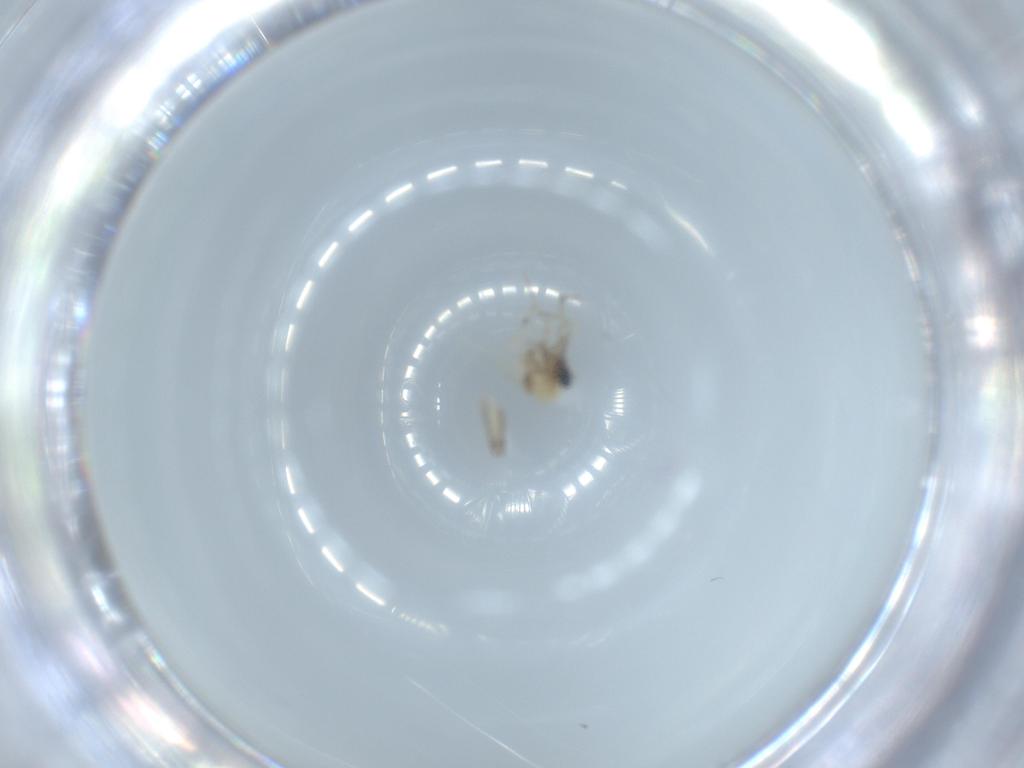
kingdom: Animalia
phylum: Arthropoda
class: Insecta
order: Diptera
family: Ceratopogonidae
